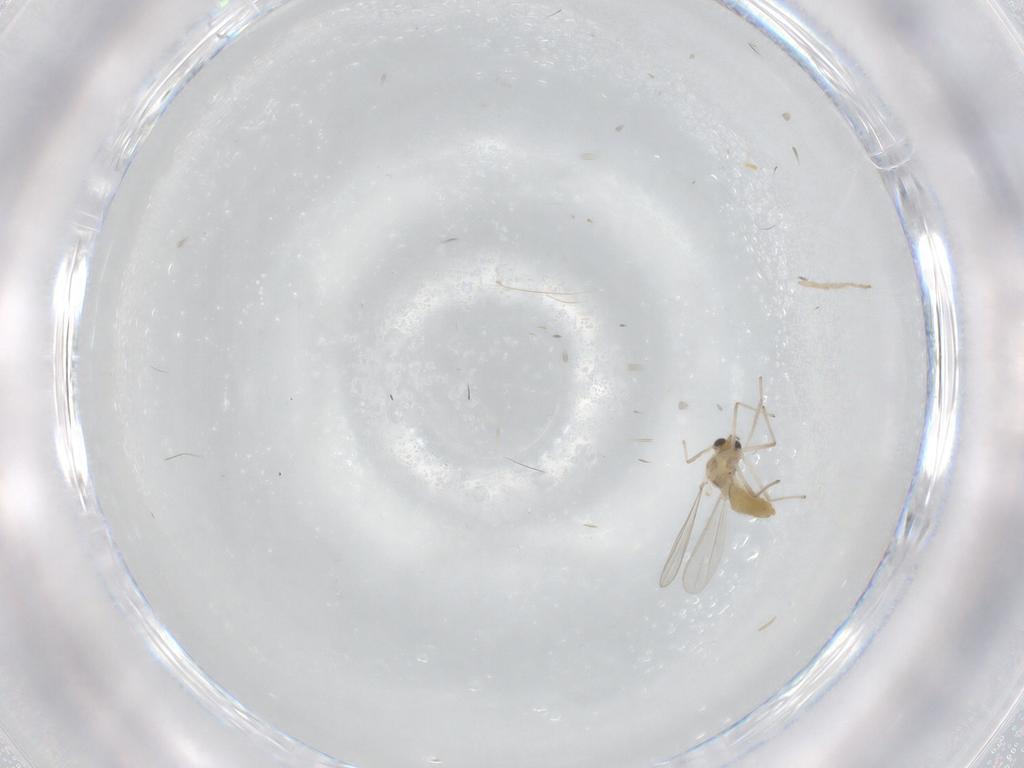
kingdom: Animalia
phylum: Arthropoda
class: Insecta
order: Diptera
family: Chironomidae
